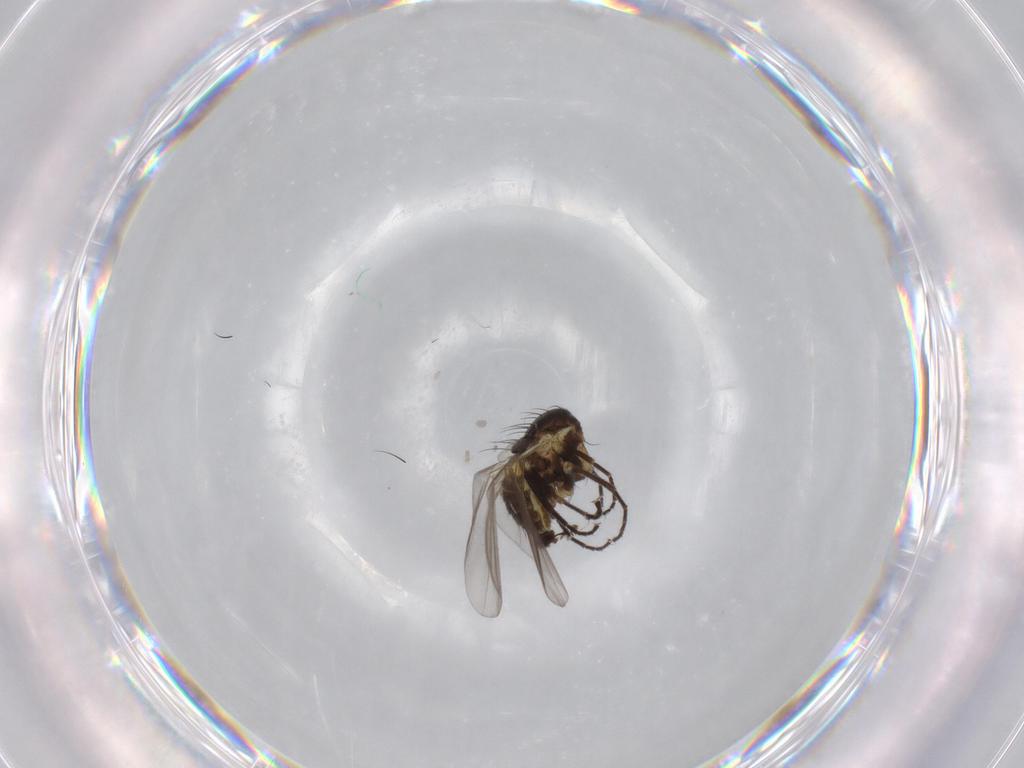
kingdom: Animalia
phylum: Arthropoda
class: Insecta
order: Diptera
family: Agromyzidae
